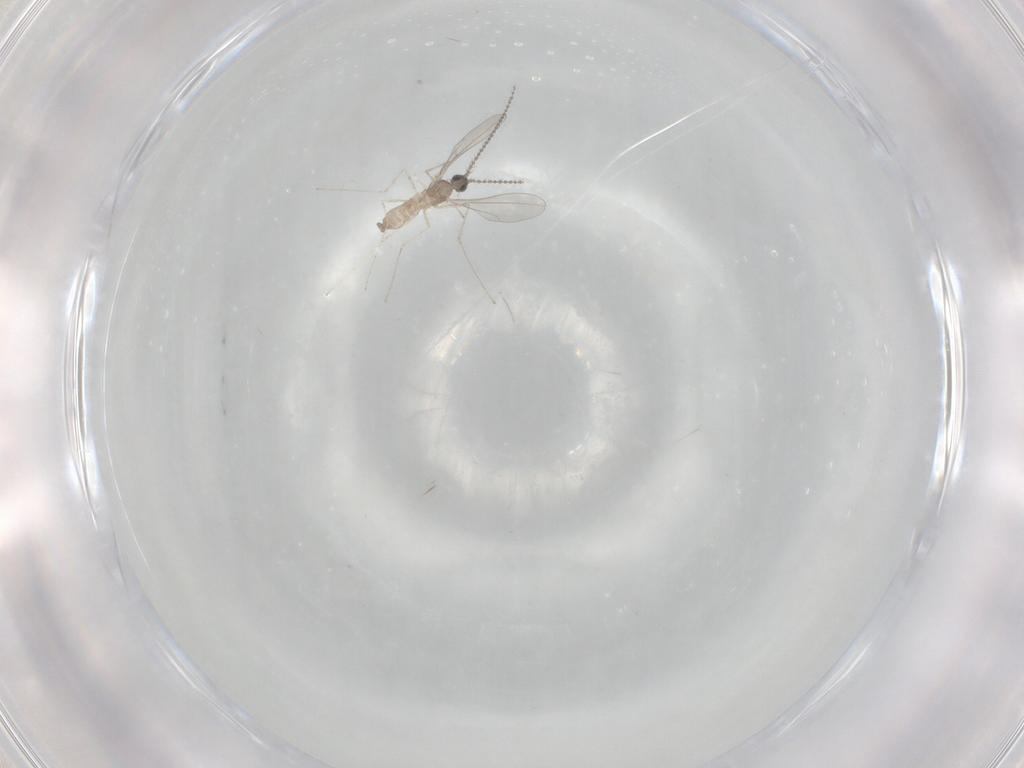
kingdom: Animalia
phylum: Arthropoda
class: Insecta
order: Diptera
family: Cecidomyiidae
